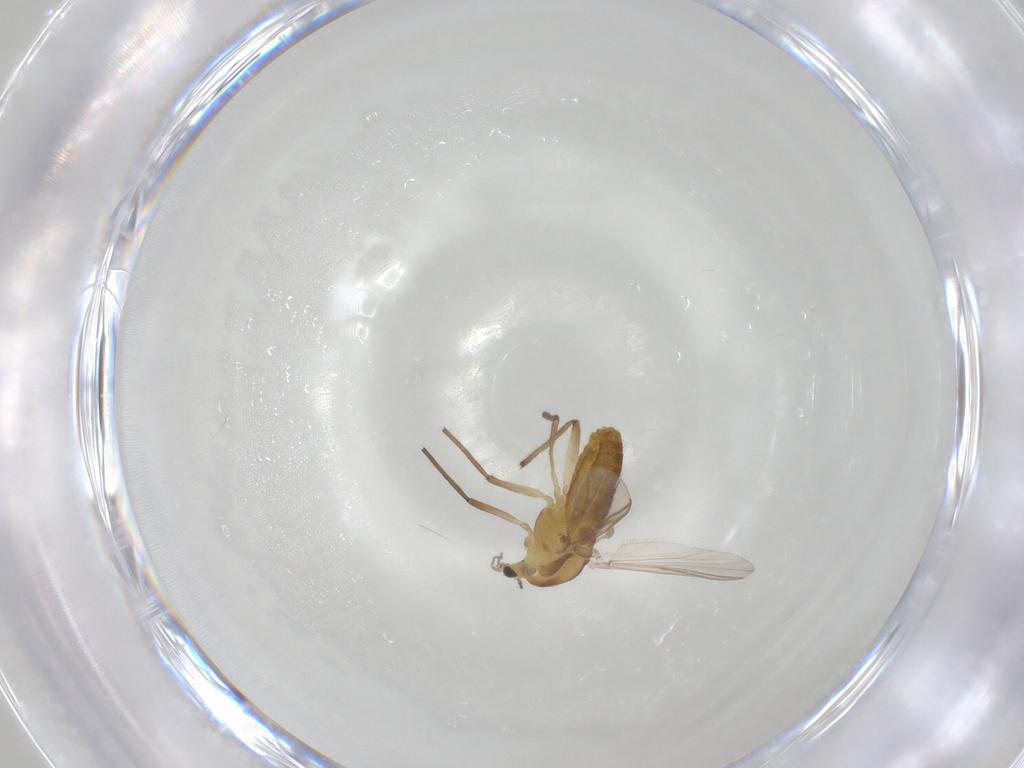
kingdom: Animalia
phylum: Arthropoda
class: Insecta
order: Diptera
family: Chironomidae
